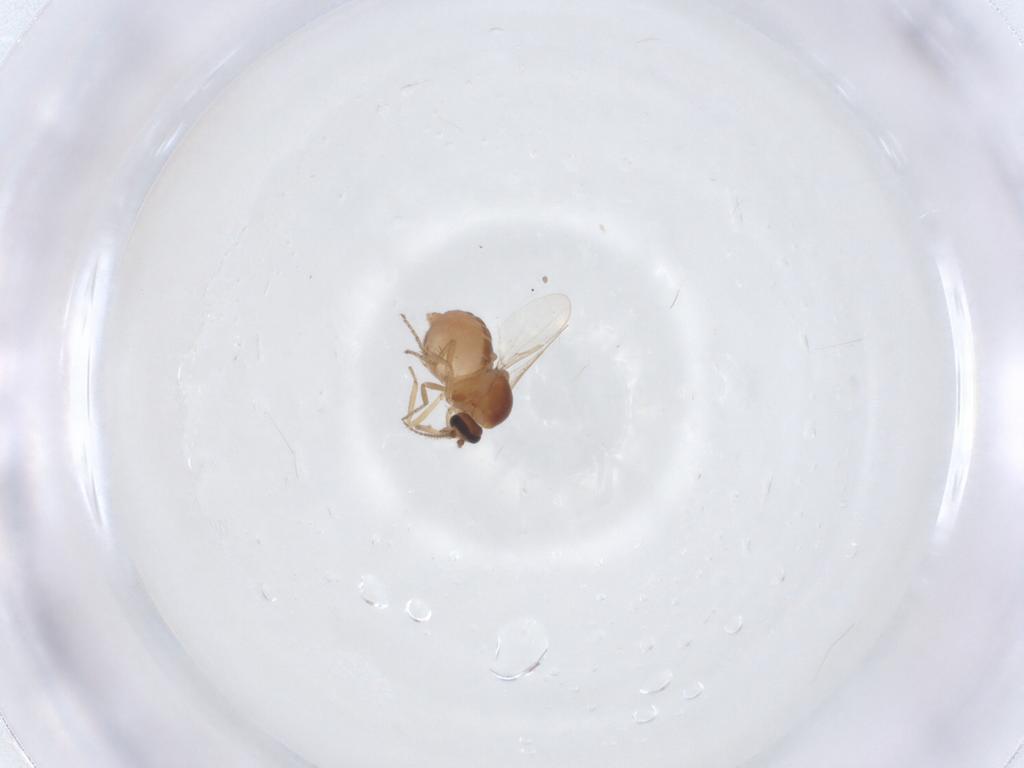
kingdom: Animalia
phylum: Arthropoda
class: Insecta
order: Diptera
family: Ceratopogonidae
